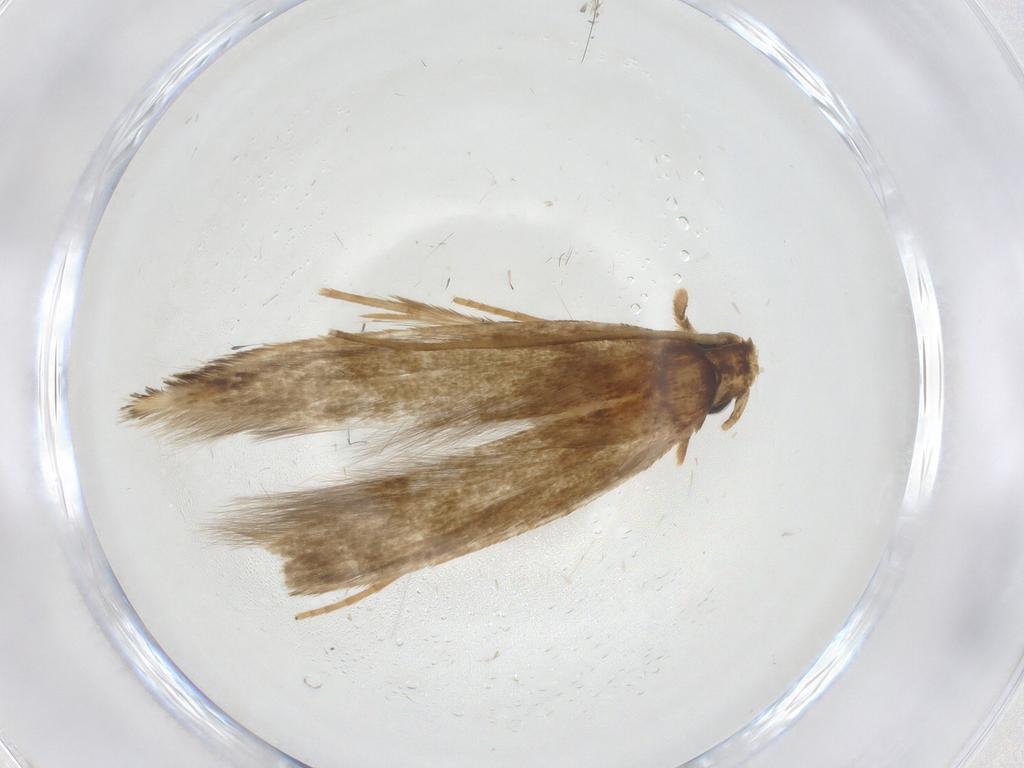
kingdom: Animalia
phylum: Arthropoda
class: Insecta
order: Lepidoptera
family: Tineidae
